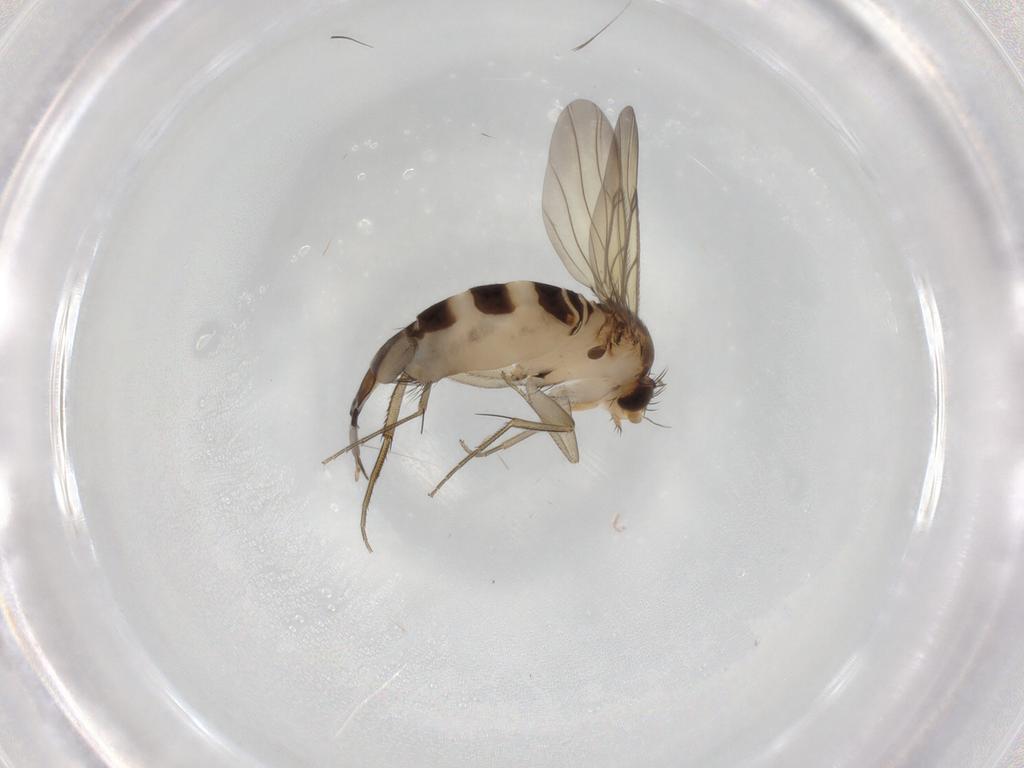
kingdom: Animalia
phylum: Arthropoda
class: Insecta
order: Diptera
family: Phoridae
